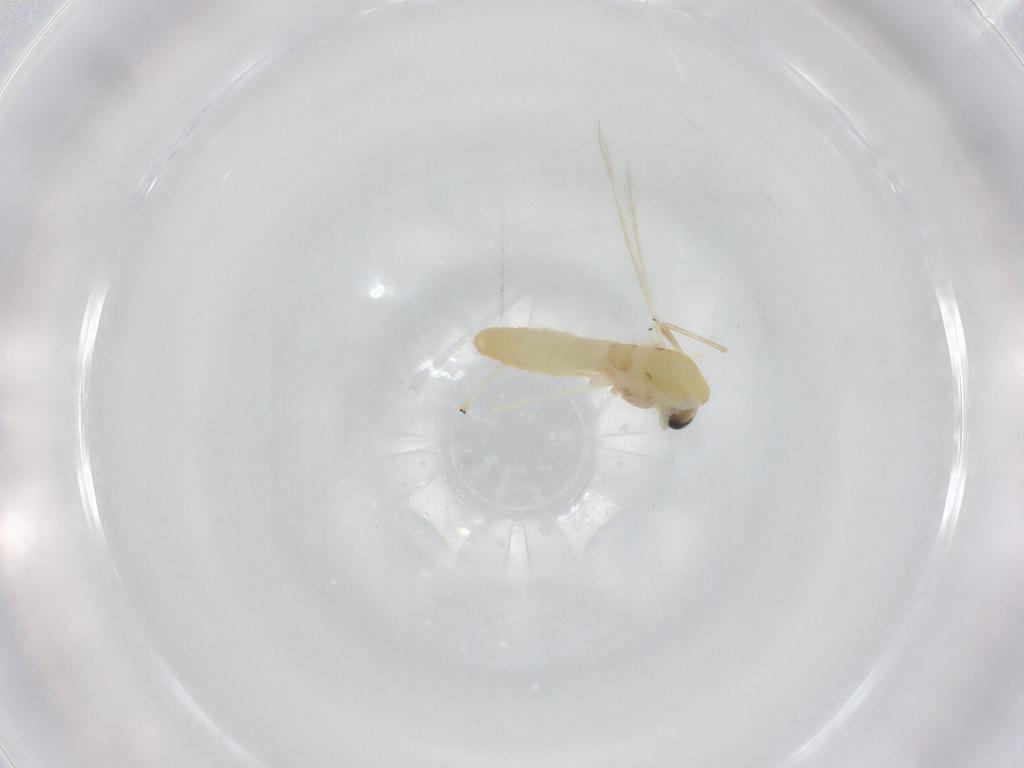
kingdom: Animalia
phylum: Arthropoda
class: Insecta
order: Diptera
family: Chironomidae
